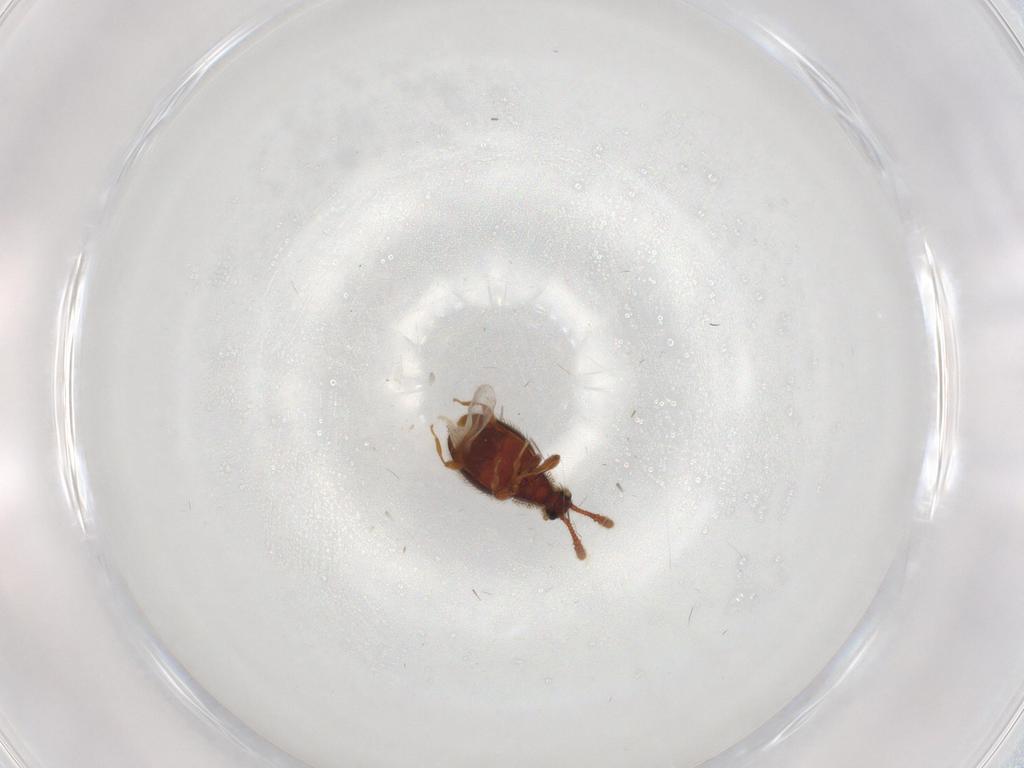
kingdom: Animalia
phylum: Arthropoda
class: Insecta
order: Coleoptera
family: Staphylinidae
